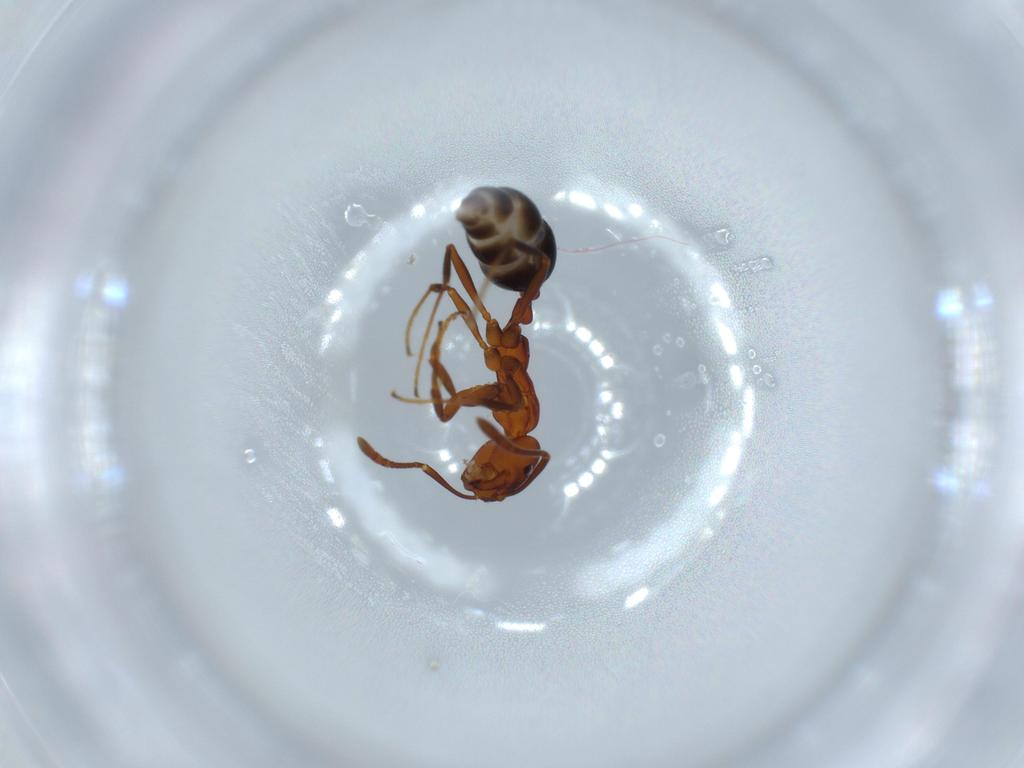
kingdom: Animalia
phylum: Arthropoda
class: Insecta
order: Hymenoptera
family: Formicidae
